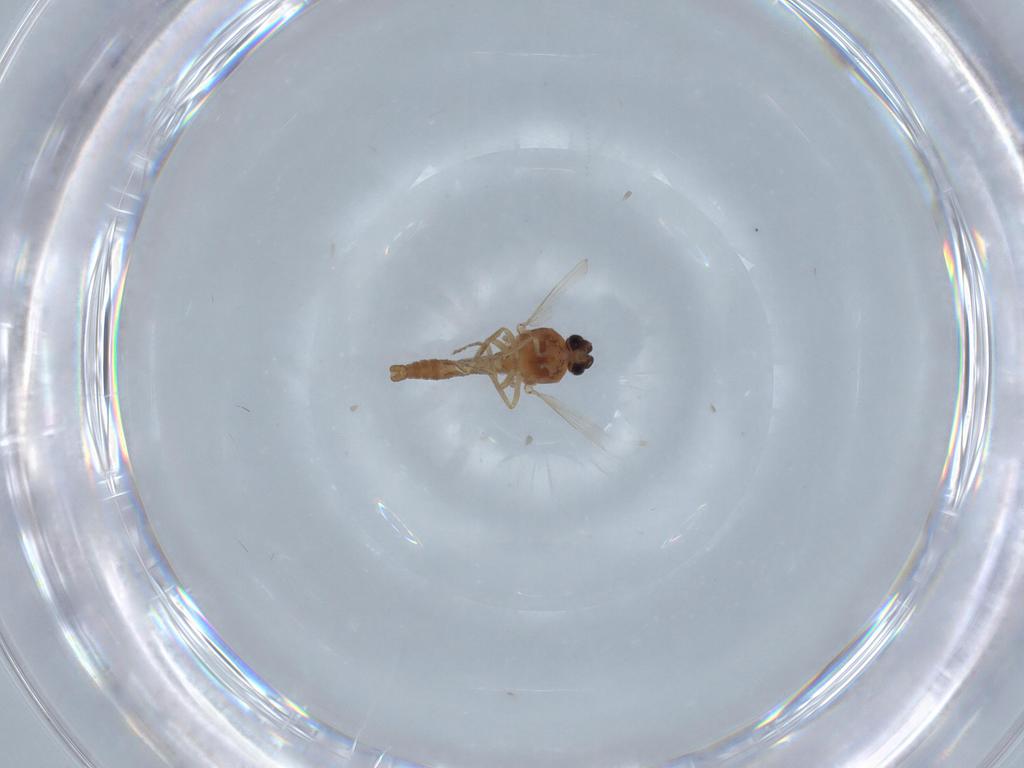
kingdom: Animalia
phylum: Arthropoda
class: Insecta
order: Diptera
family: Ceratopogonidae
